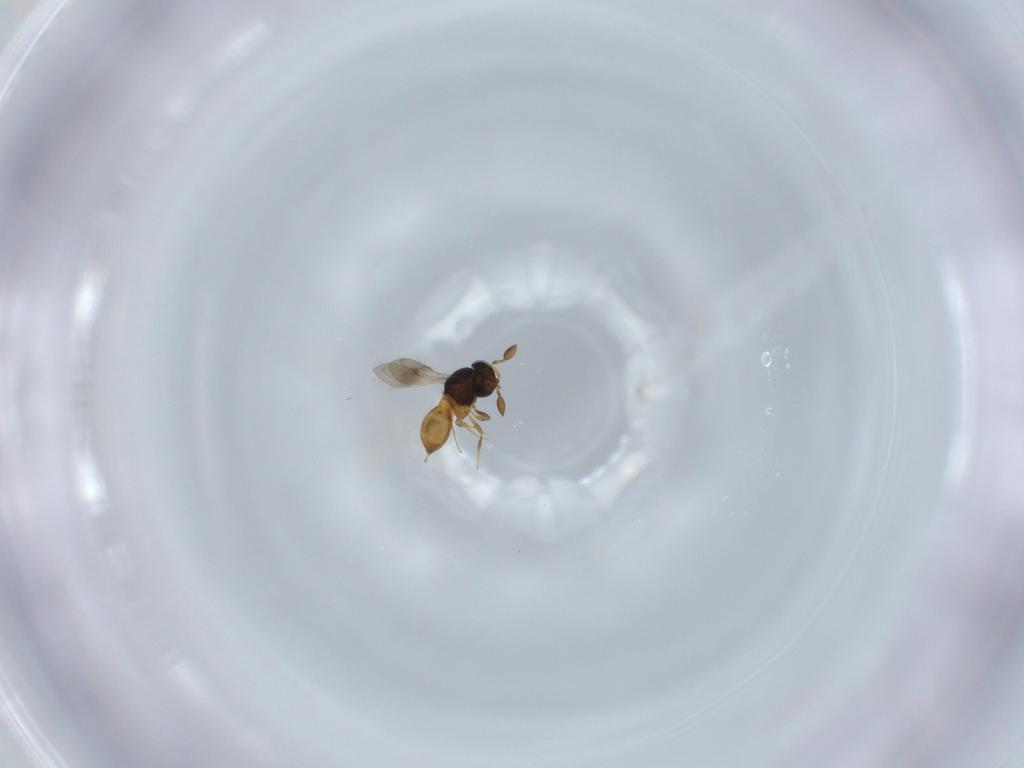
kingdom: Animalia
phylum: Arthropoda
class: Insecta
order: Hymenoptera
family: Scelionidae
